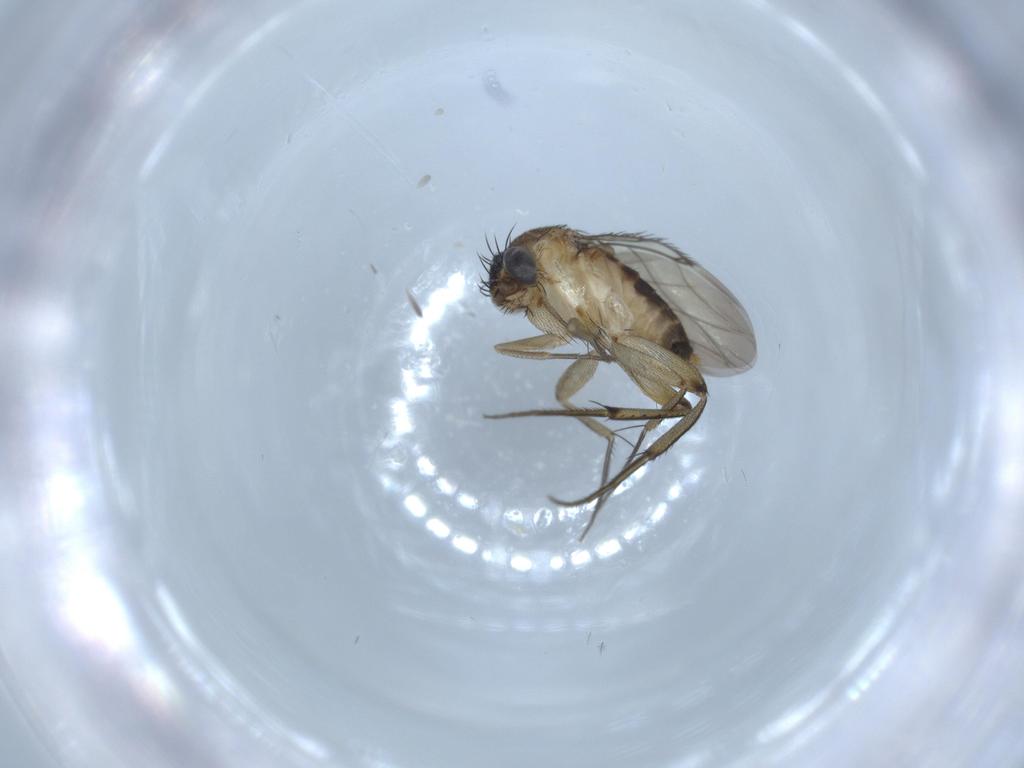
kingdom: Animalia
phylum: Arthropoda
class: Insecta
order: Diptera
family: Phoridae
